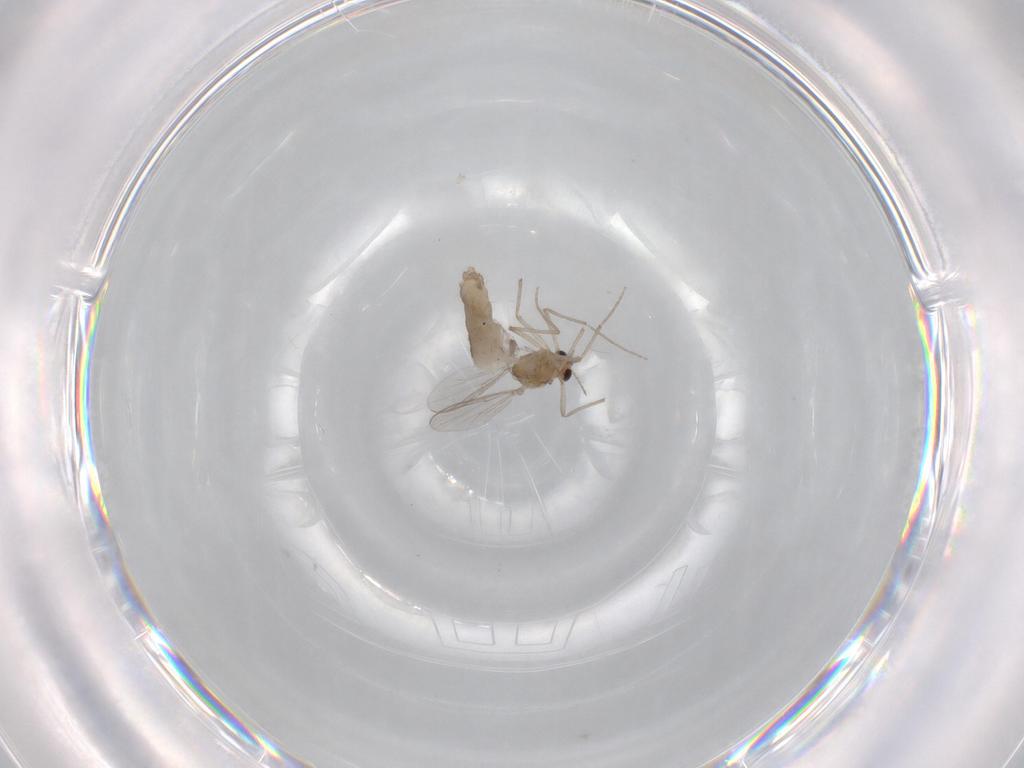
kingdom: Animalia
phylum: Arthropoda
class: Insecta
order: Diptera
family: Chironomidae
